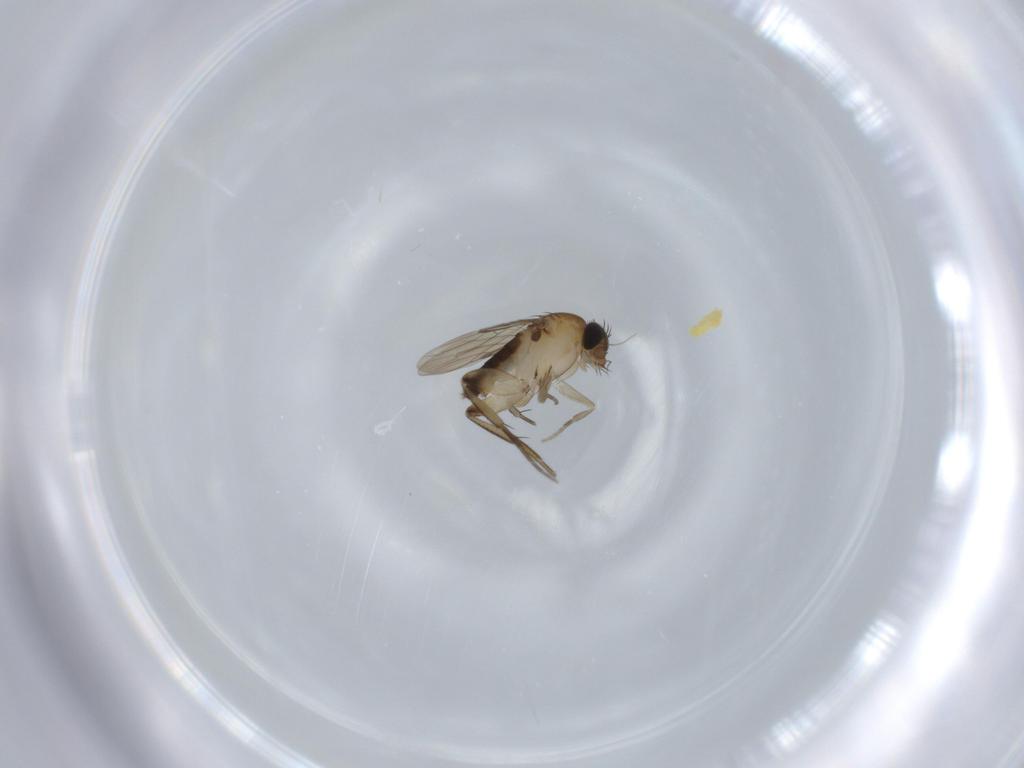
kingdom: Animalia
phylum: Arthropoda
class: Insecta
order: Diptera
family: Phoridae
